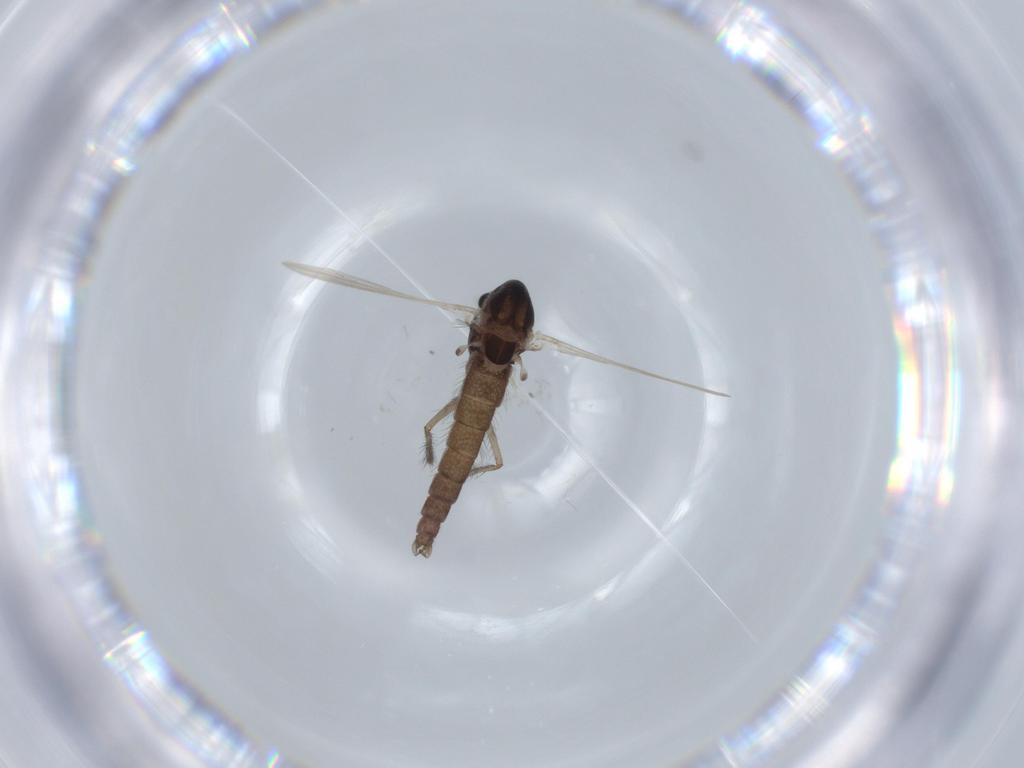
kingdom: Animalia
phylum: Arthropoda
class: Insecta
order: Diptera
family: Chironomidae
